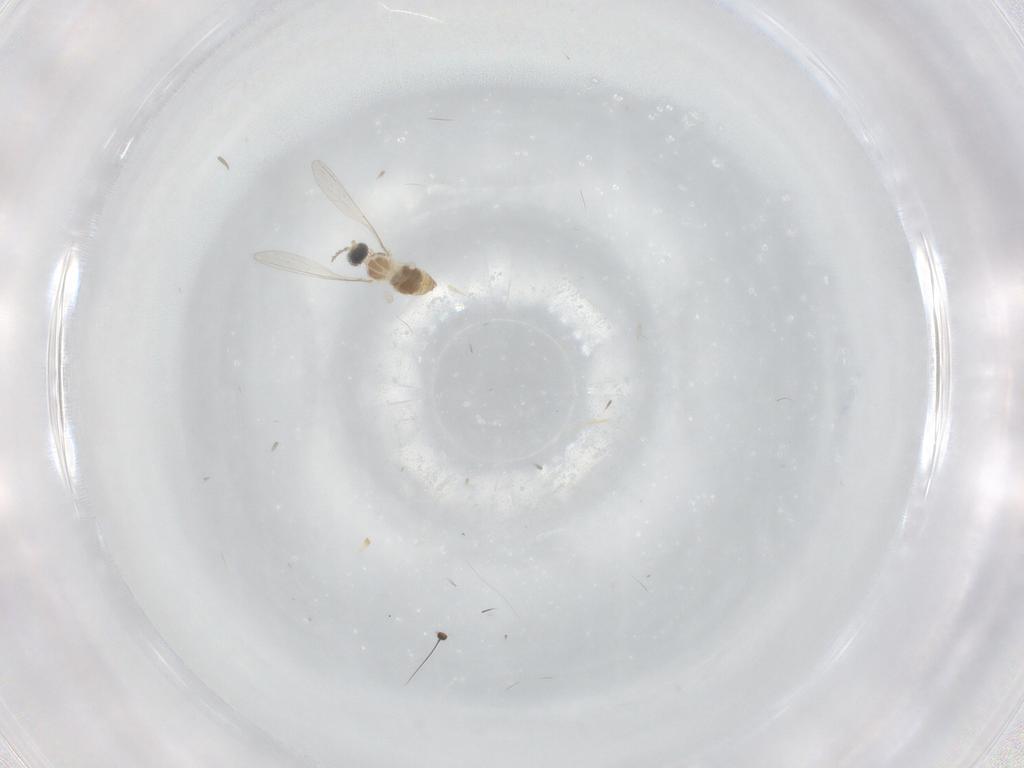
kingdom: Animalia
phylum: Arthropoda
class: Insecta
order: Diptera
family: Cecidomyiidae
